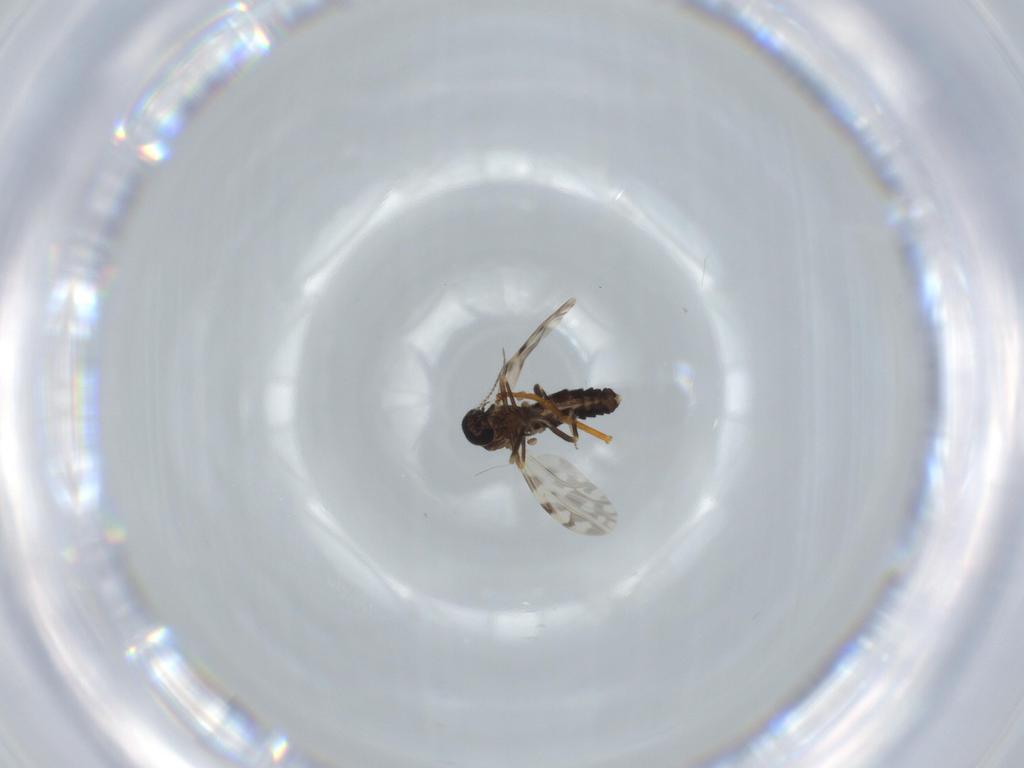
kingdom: Animalia
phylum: Arthropoda
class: Insecta
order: Diptera
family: Ceratopogonidae
